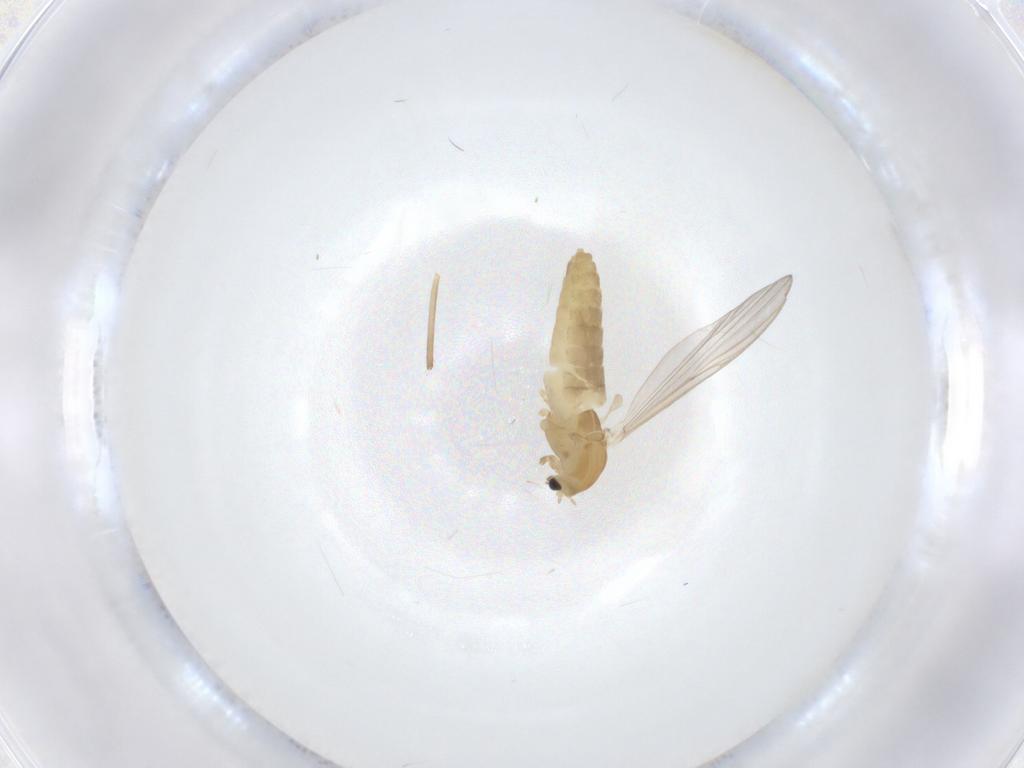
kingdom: Animalia
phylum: Arthropoda
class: Insecta
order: Diptera
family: Chironomidae
